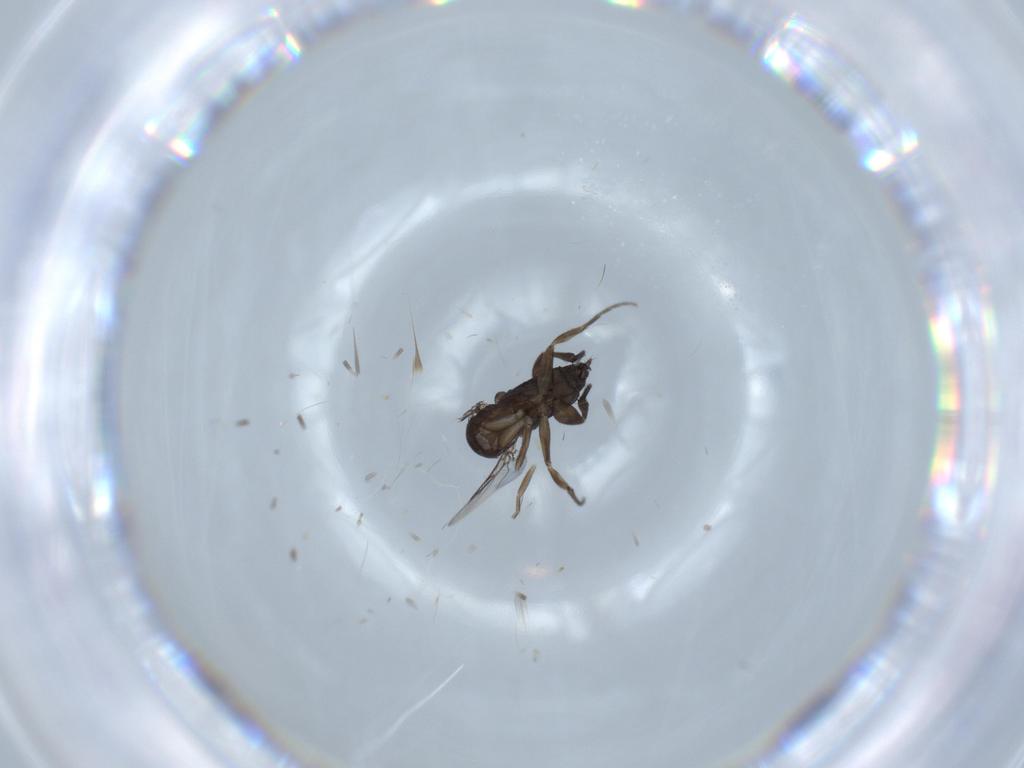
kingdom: Animalia
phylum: Arthropoda
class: Insecta
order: Diptera
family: Phoridae
